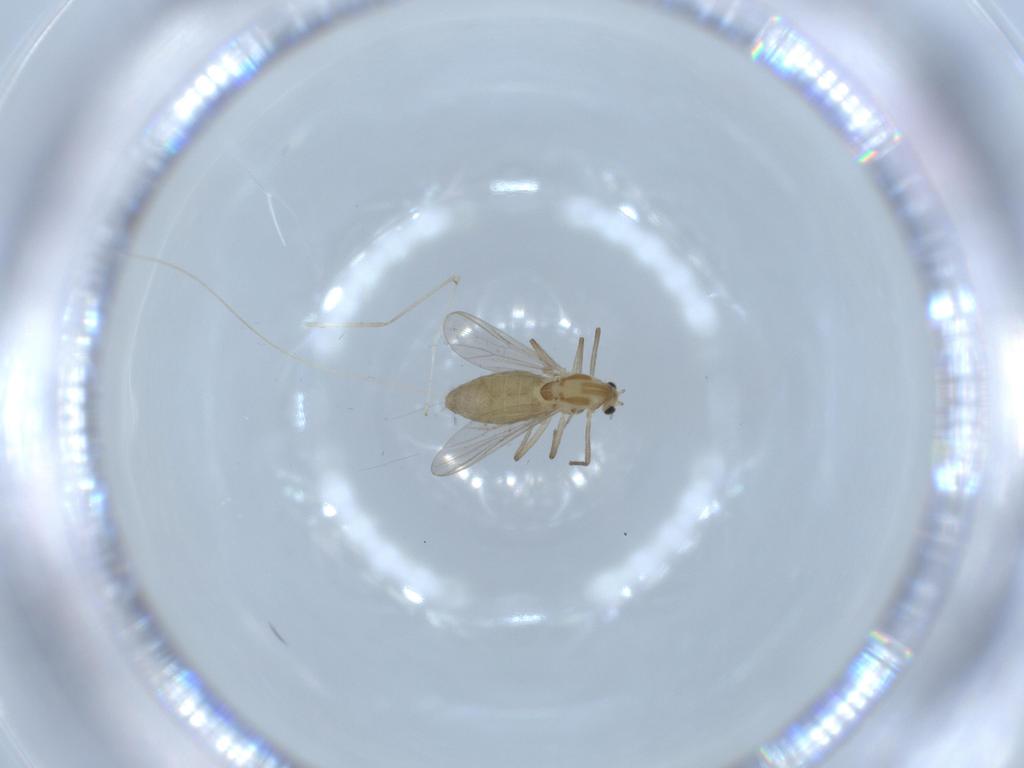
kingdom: Animalia
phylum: Arthropoda
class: Insecta
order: Diptera
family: Chironomidae
